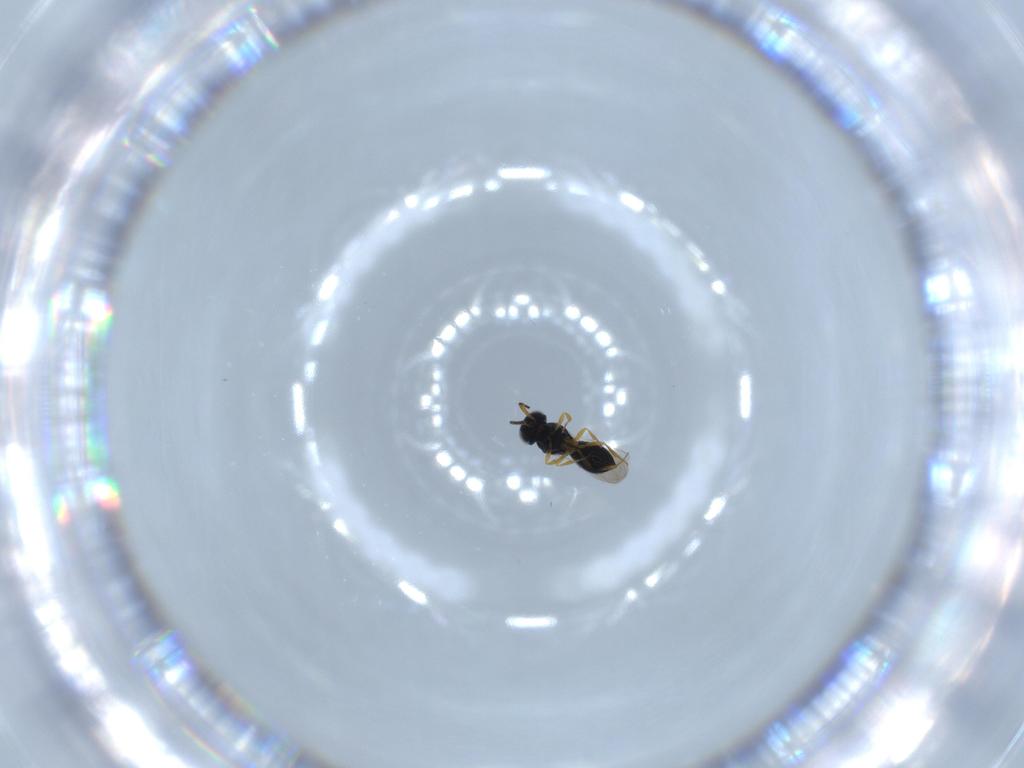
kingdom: Animalia
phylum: Arthropoda
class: Insecta
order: Hymenoptera
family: Scelionidae
